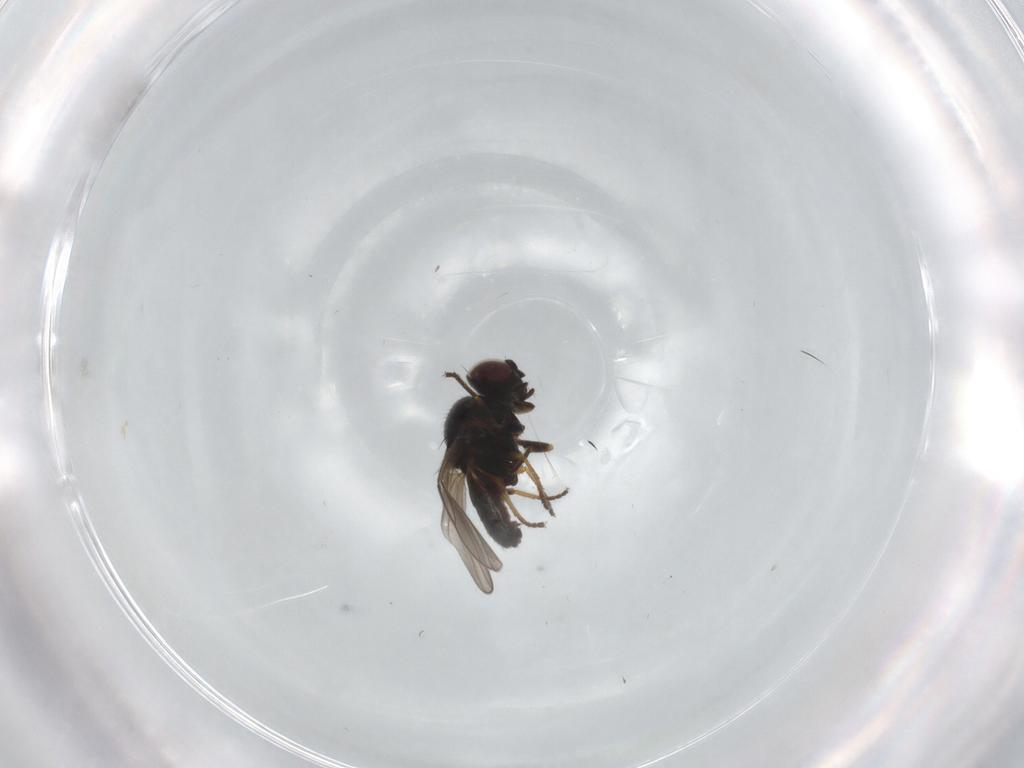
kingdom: Animalia
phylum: Arthropoda
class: Insecta
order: Diptera
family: Chloropidae
